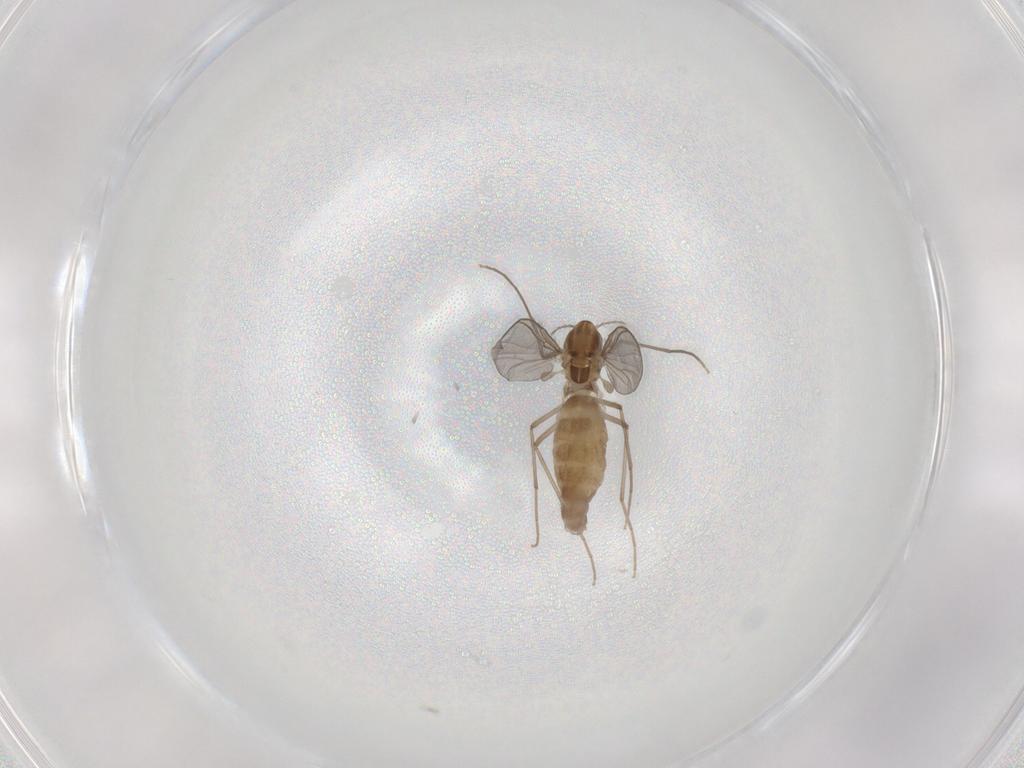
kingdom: Animalia
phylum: Arthropoda
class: Insecta
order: Diptera
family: Chironomidae
